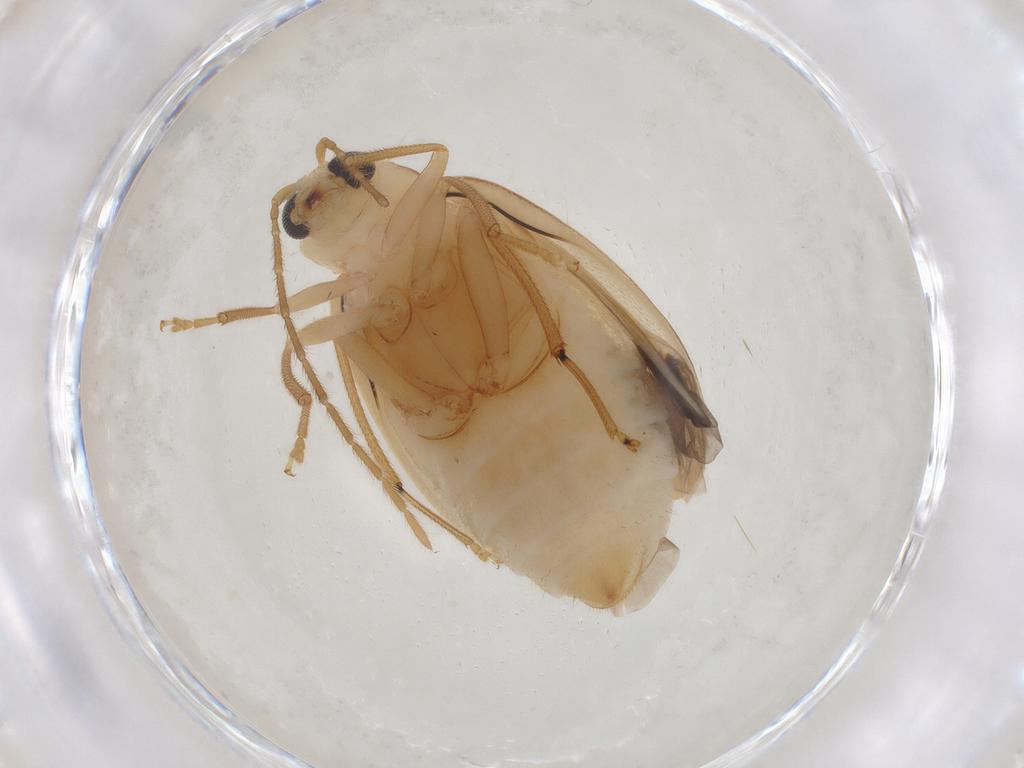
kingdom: Animalia
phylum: Arthropoda
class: Insecta
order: Coleoptera
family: Chrysomelidae
